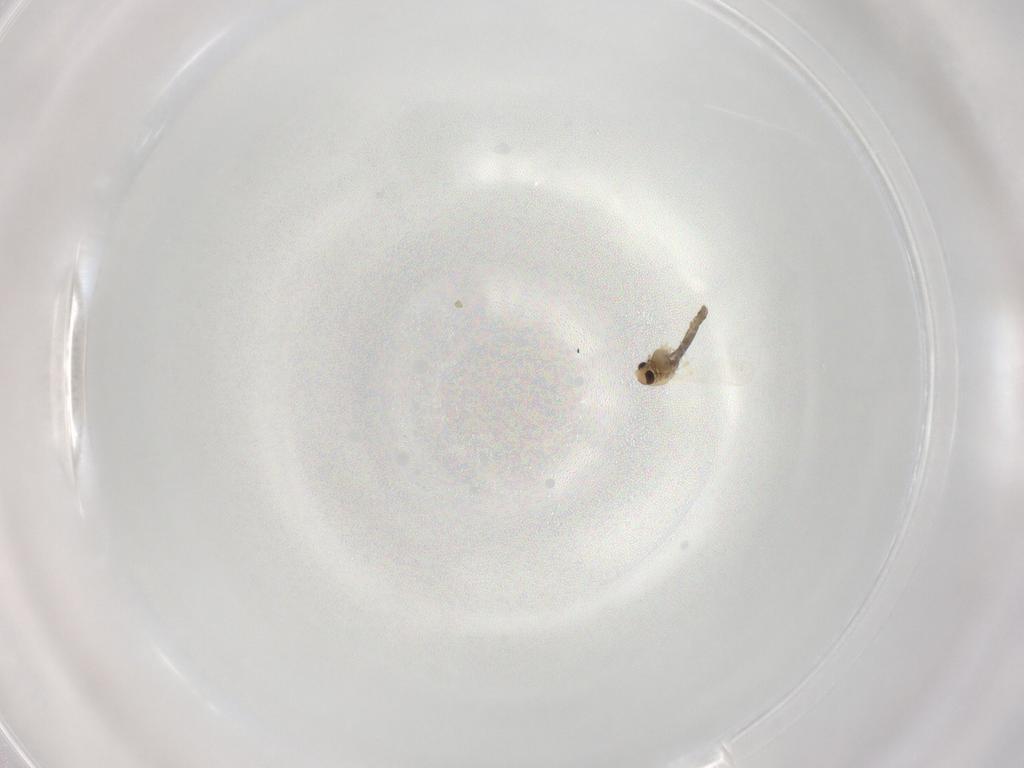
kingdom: Animalia
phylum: Arthropoda
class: Insecta
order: Diptera
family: Chironomidae
